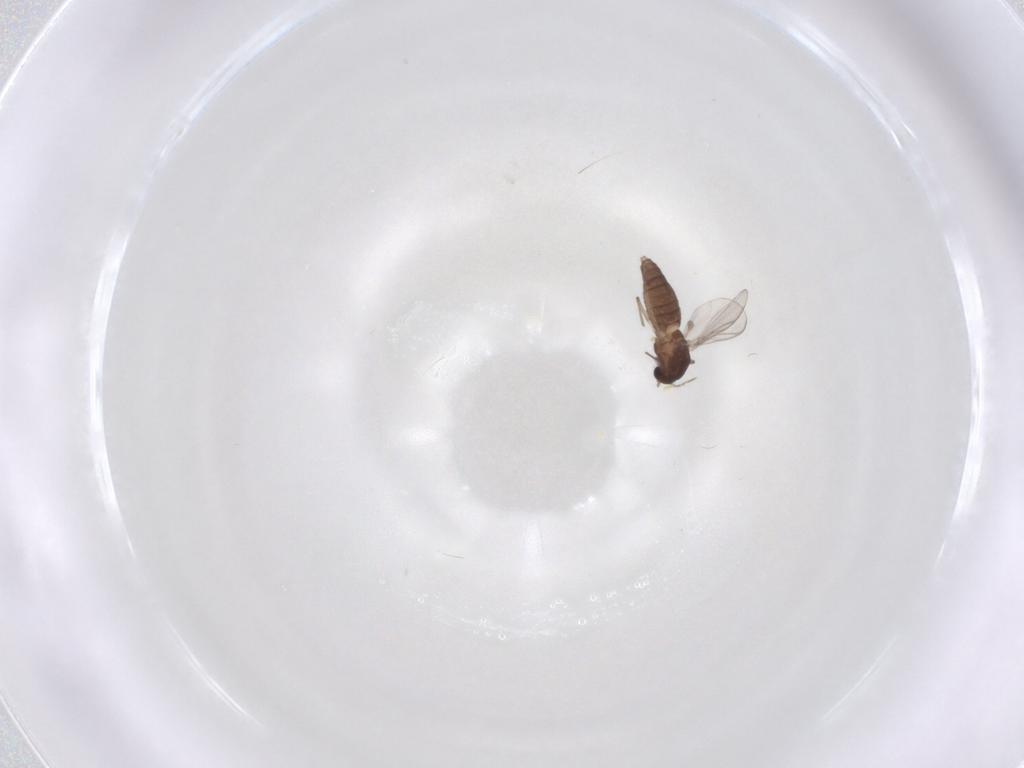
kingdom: Animalia
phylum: Arthropoda
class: Insecta
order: Diptera
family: Chironomidae
